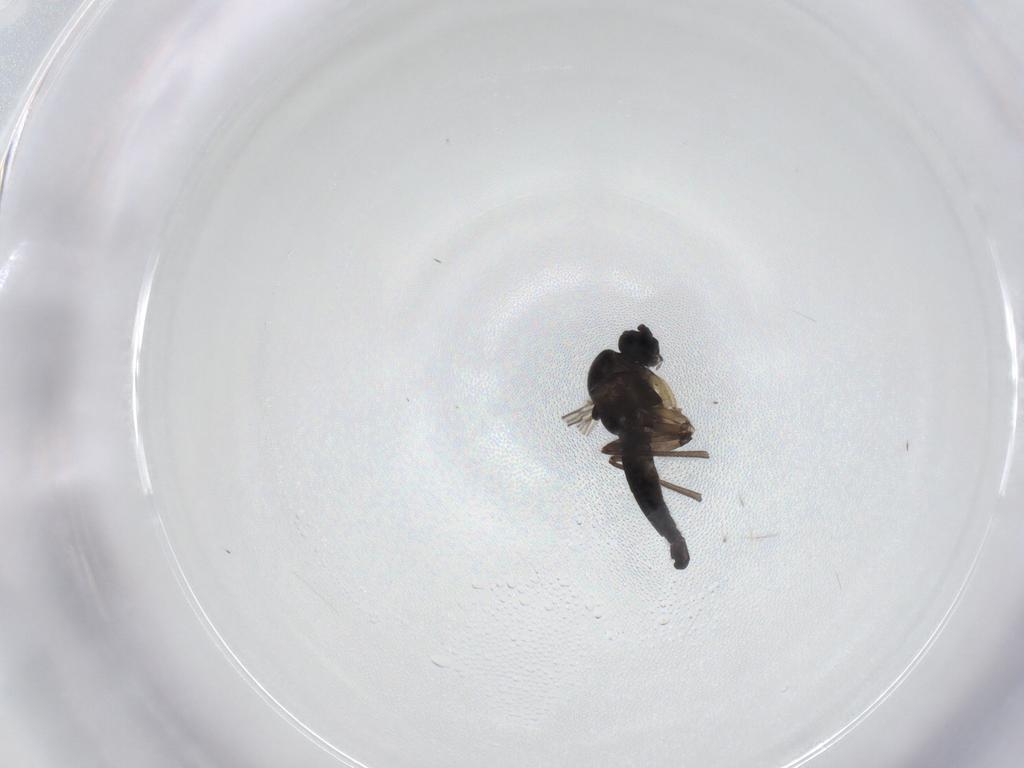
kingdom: Animalia
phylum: Arthropoda
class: Insecta
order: Diptera
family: Sciaridae
